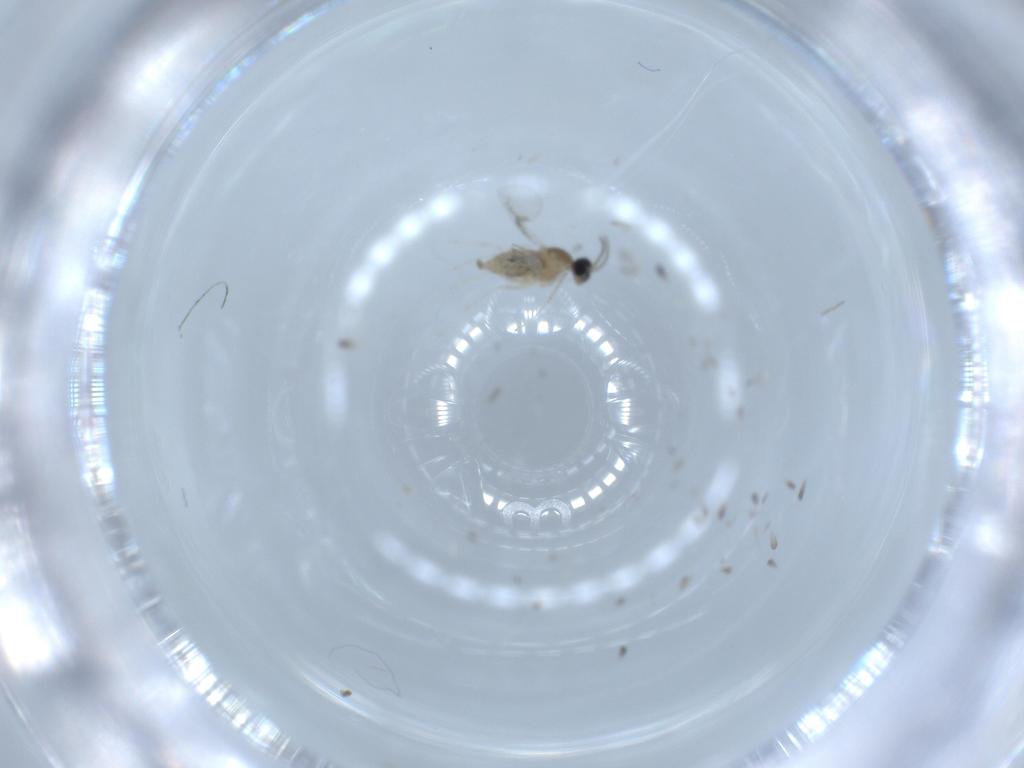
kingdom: Animalia
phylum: Arthropoda
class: Insecta
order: Diptera
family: Cecidomyiidae
